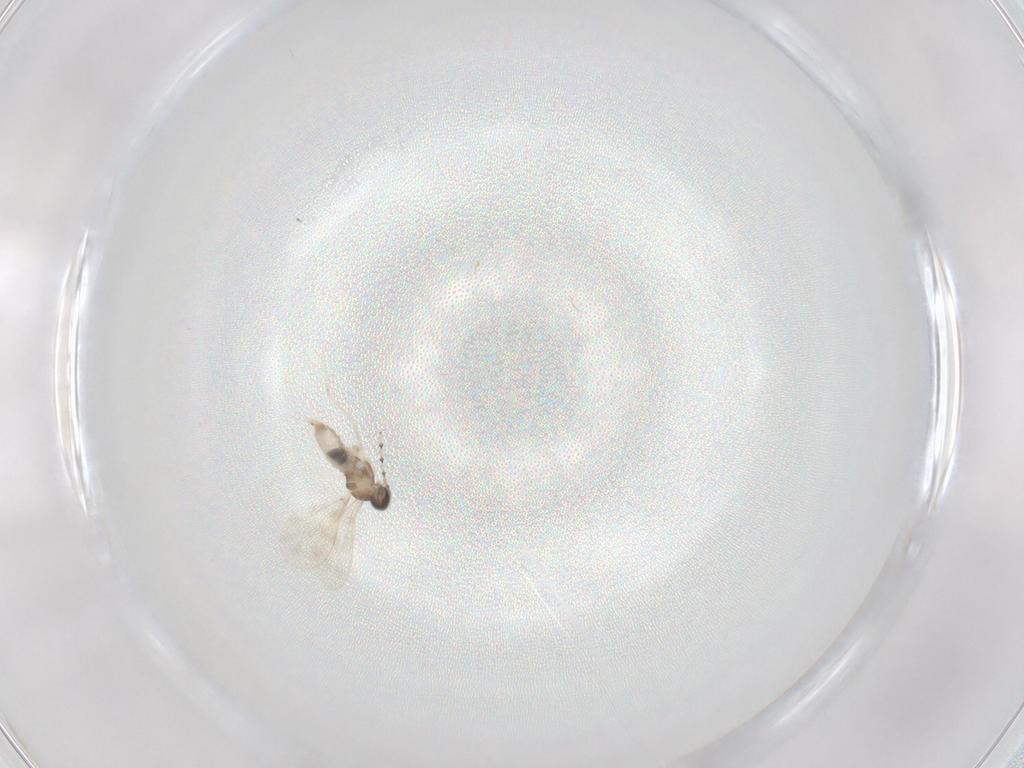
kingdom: Animalia
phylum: Arthropoda
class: Insecta
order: Diptera
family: Cecidomyiidae
